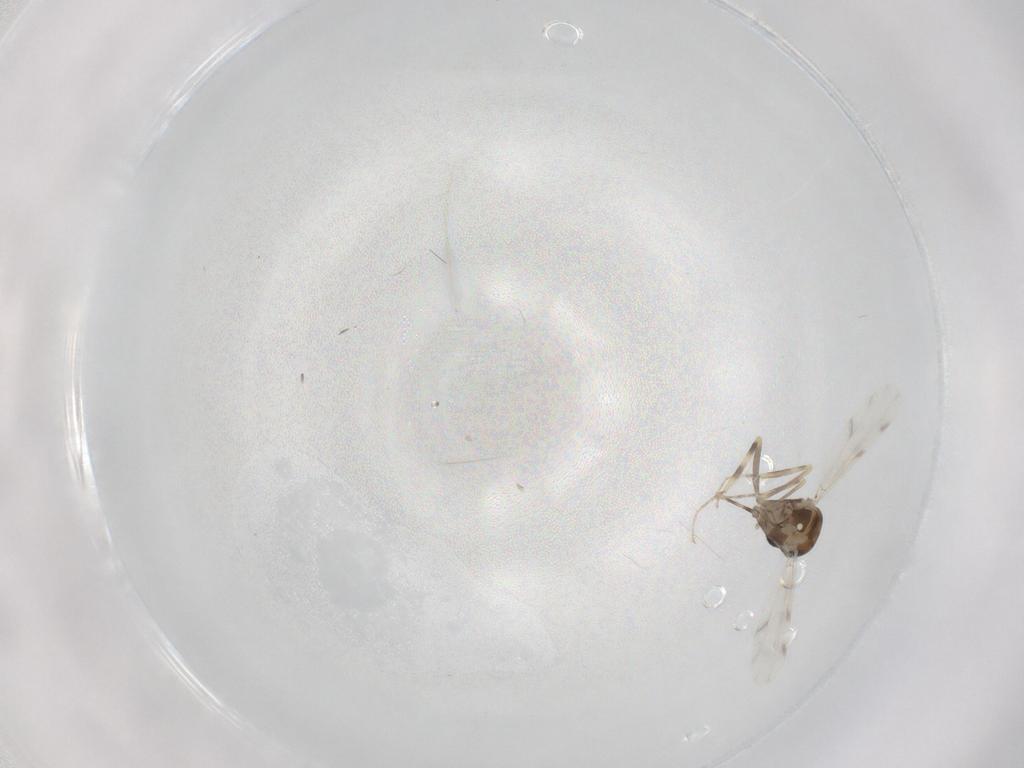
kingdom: Animalia
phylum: Arthropoda
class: Insecta
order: Diptera
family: Ceratopogonidae
